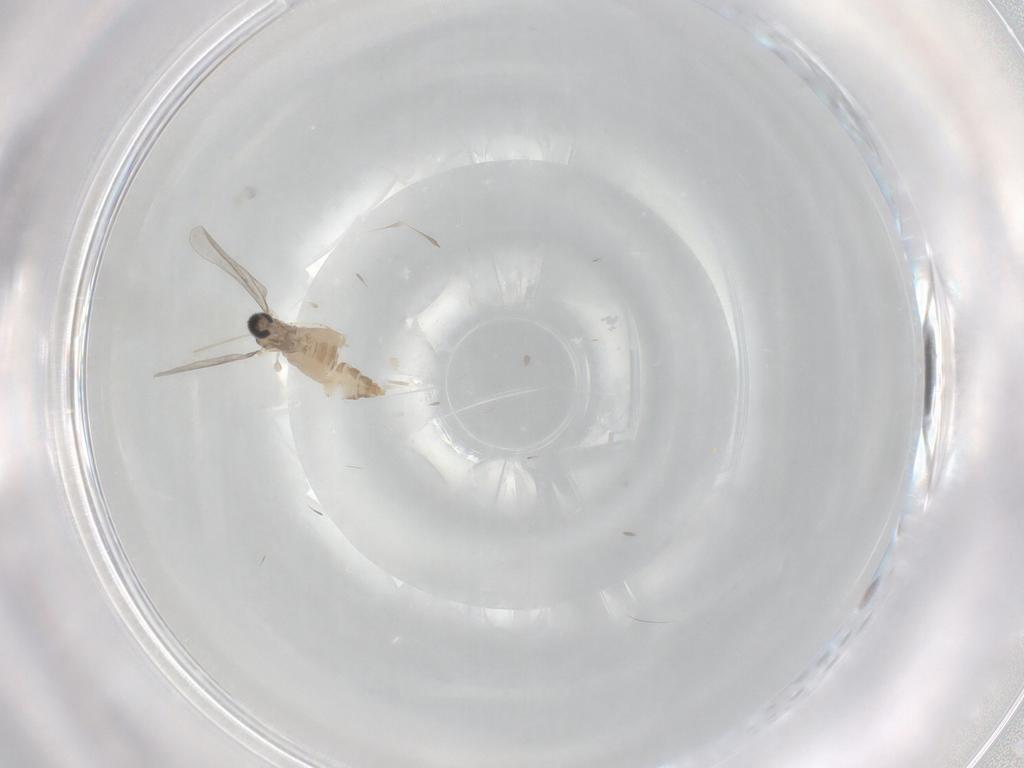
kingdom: Animalia
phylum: Arthropoda
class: Insecta
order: Diptera
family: Cecidomyiidae
